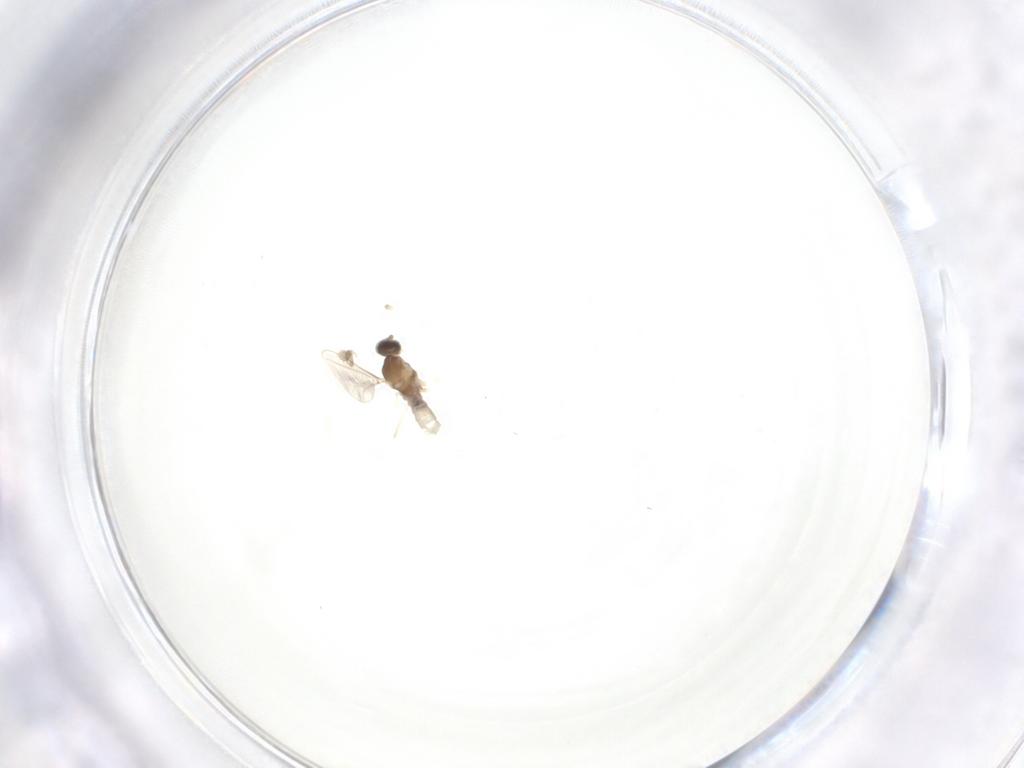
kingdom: Animalia
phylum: Arthropoda
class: Insecta
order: Diptera
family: Cecidomyiidae
